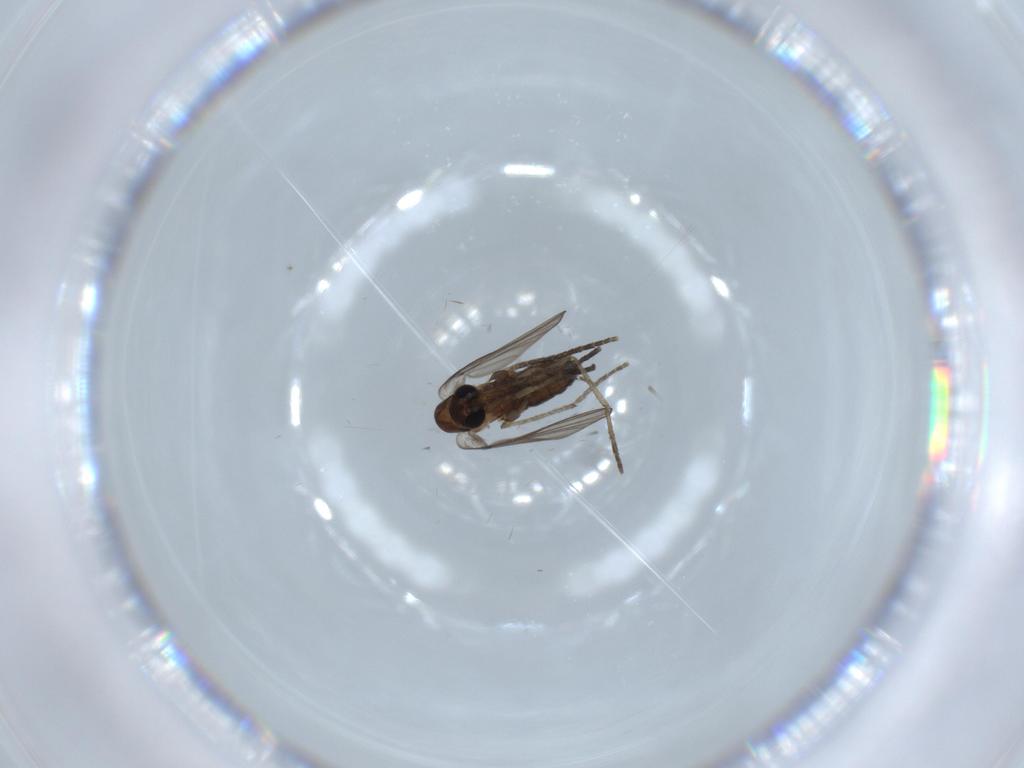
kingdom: Animalia
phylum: Arthropoda
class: Insecta
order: Diptera
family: Psychodidae
